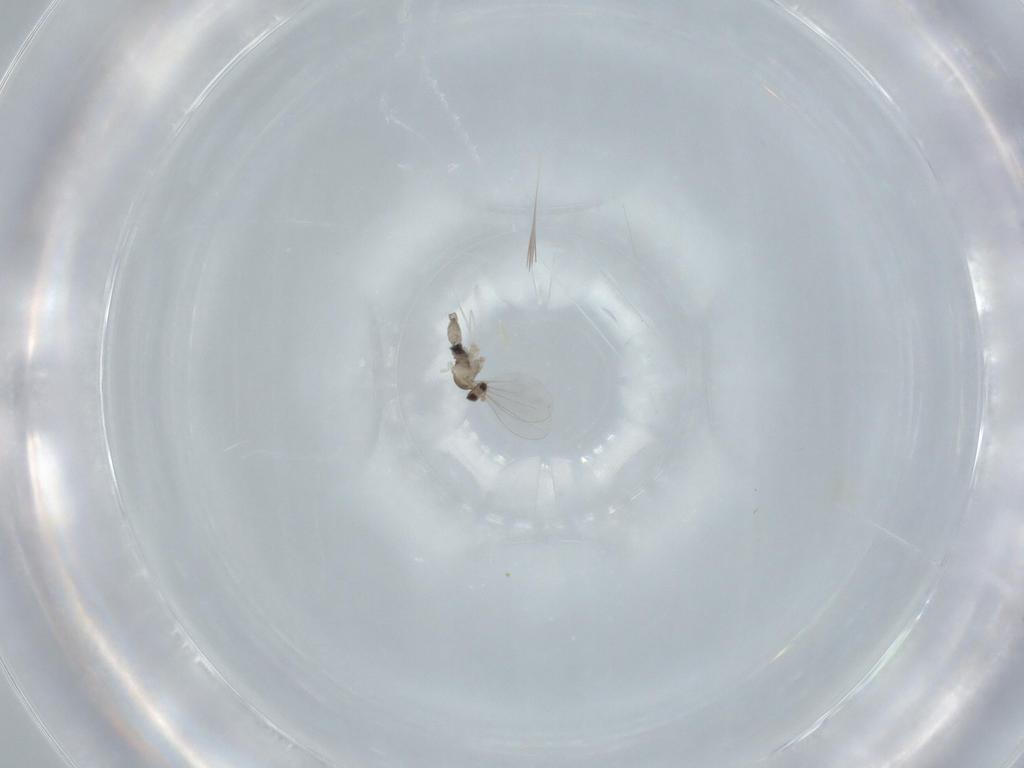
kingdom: Animalia
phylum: Arthropoda
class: Insecta
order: Diptera
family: Cecidomyiidae
